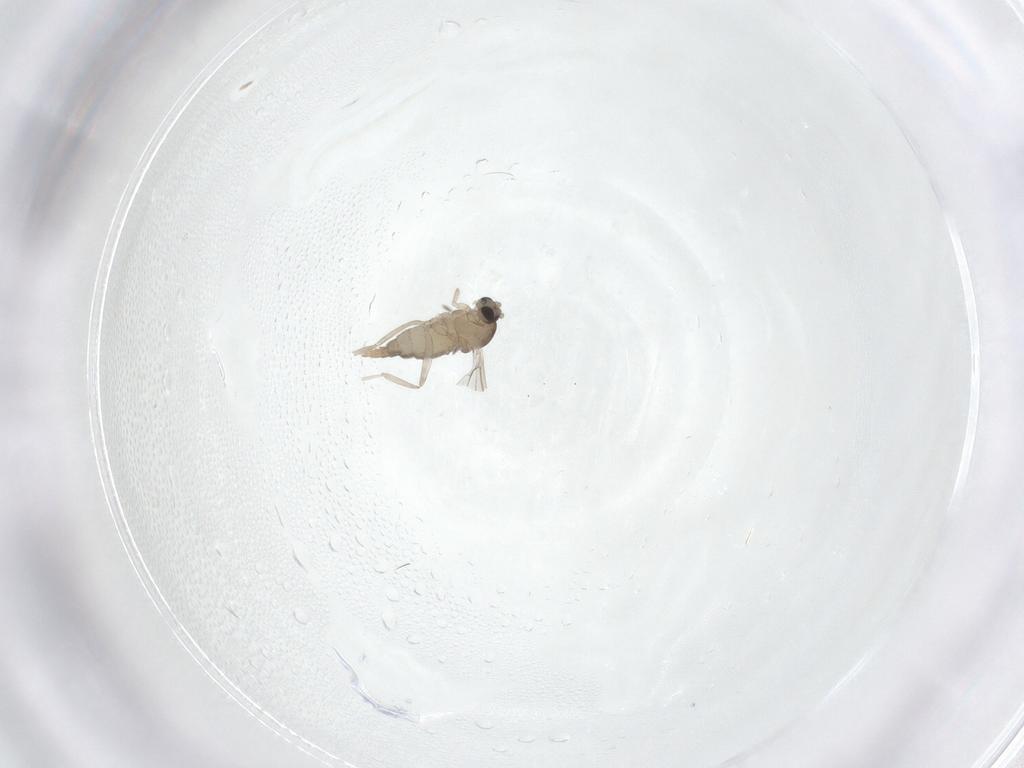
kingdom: Animalia
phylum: Arthropoda
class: Insecta
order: Diptera
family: Cecidomyiidae
